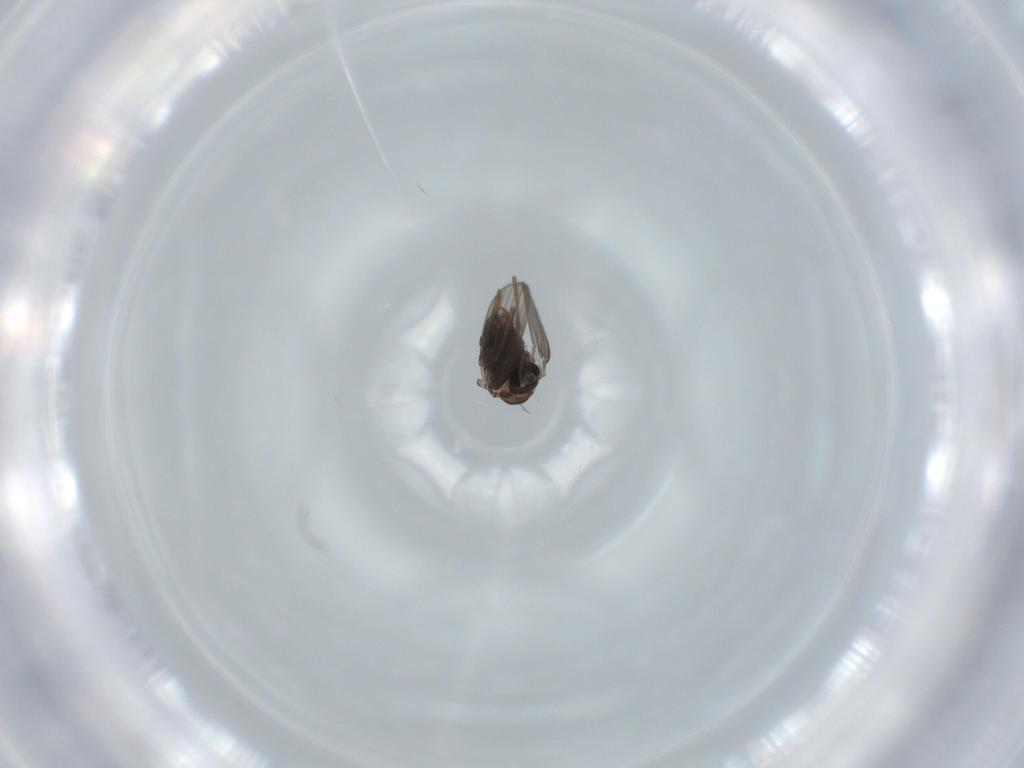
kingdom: Animalia
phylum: Arthropoda
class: Insecta
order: Diptera
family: Psychodidae
